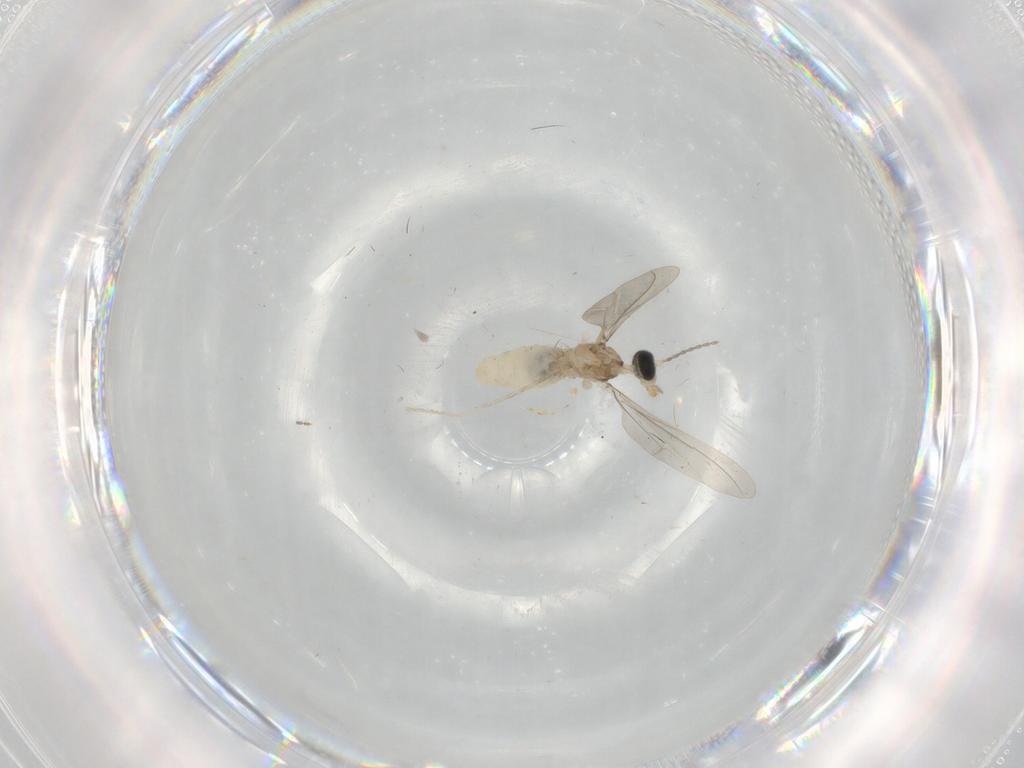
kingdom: Animalia
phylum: Arthropoda
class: Insecta
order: Diptera
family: Cecidomyiidae
